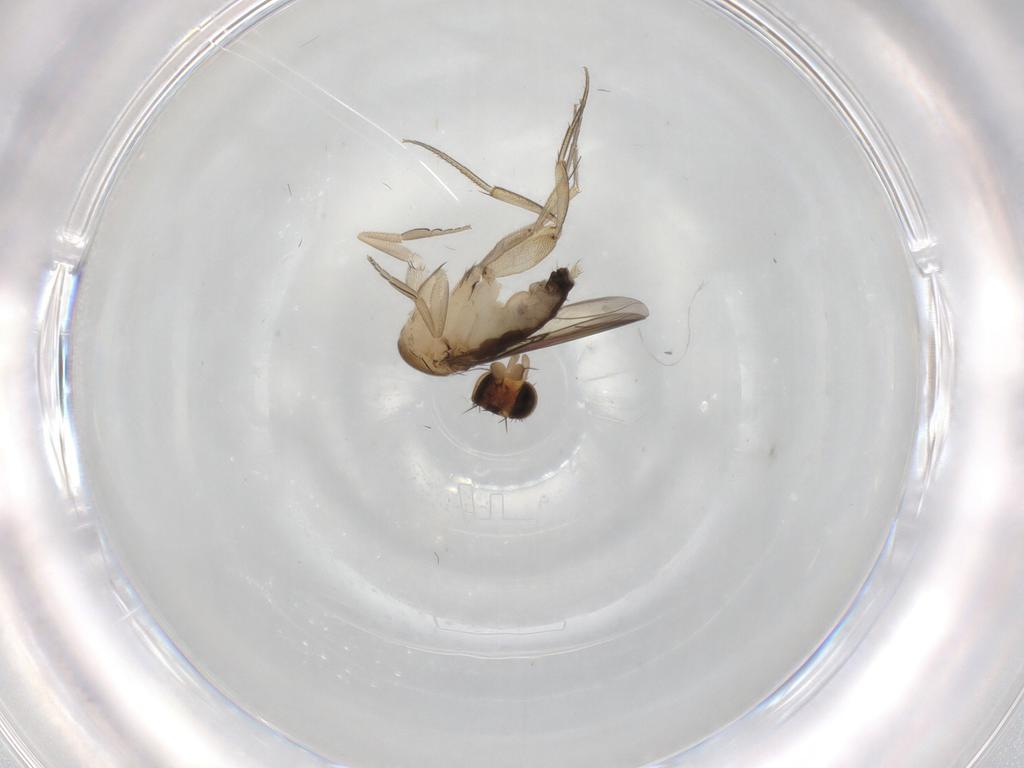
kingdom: Animalia
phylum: Arthropoda
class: Insecta
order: Diptera
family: Phoridae
